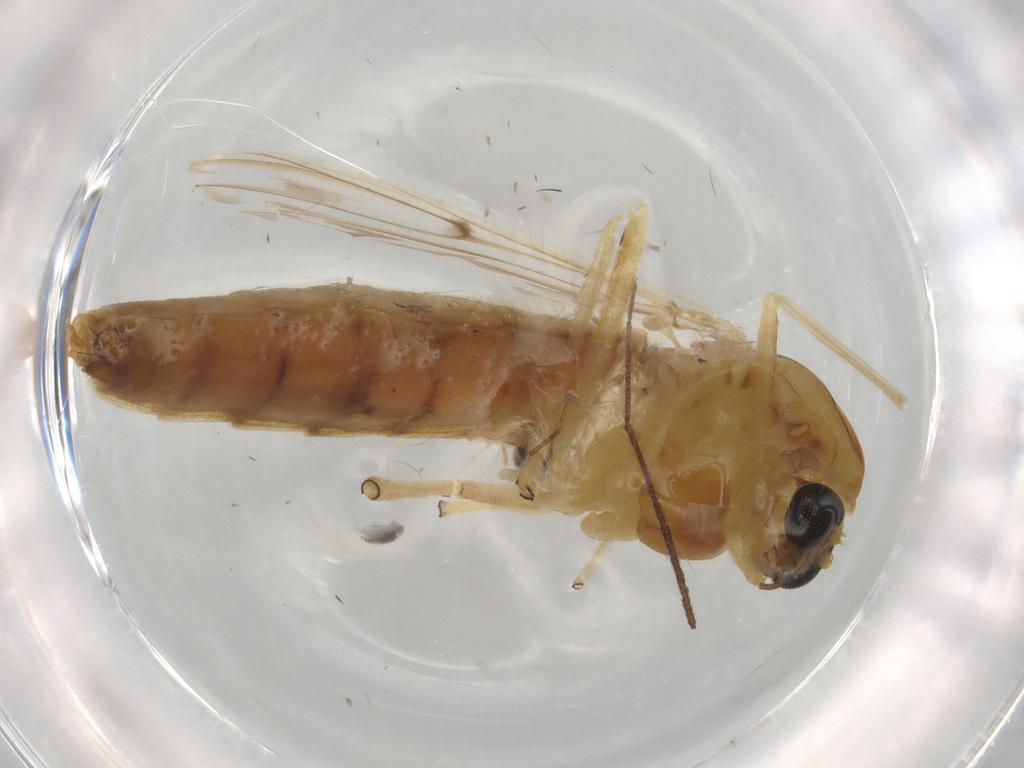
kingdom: Animalia
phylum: Arthropoda
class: Insecta
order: Diptera
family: Chironomidae
